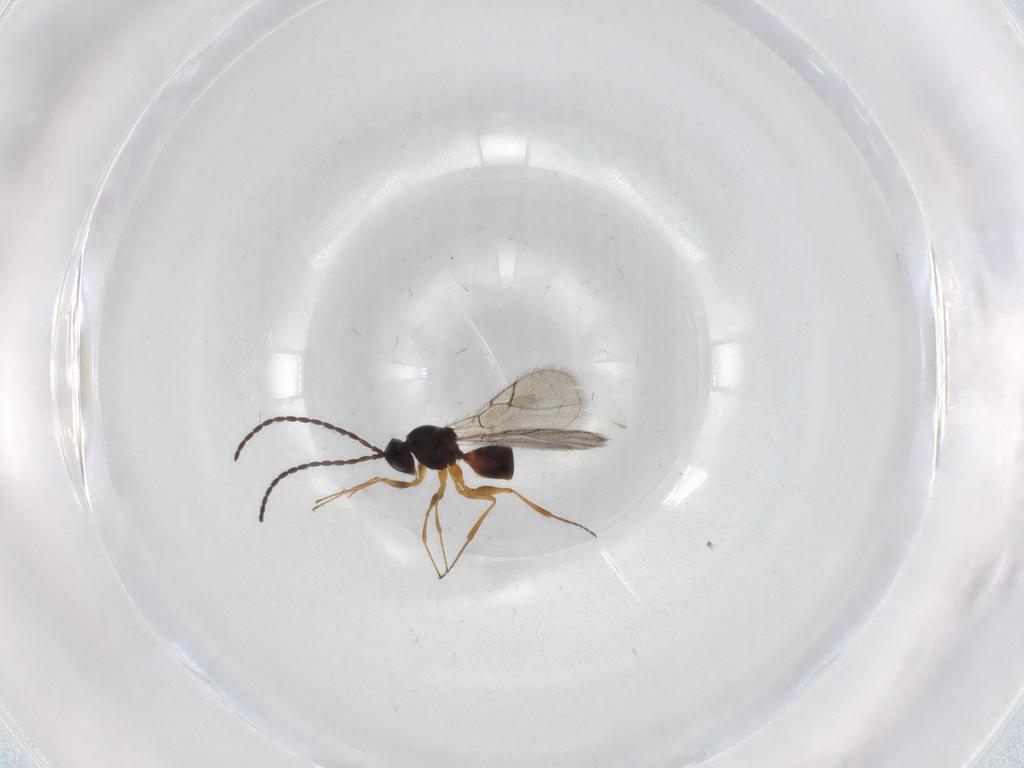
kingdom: Animalia
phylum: Arthropoda
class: Insecta
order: Hymenoptera
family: Figitidae
